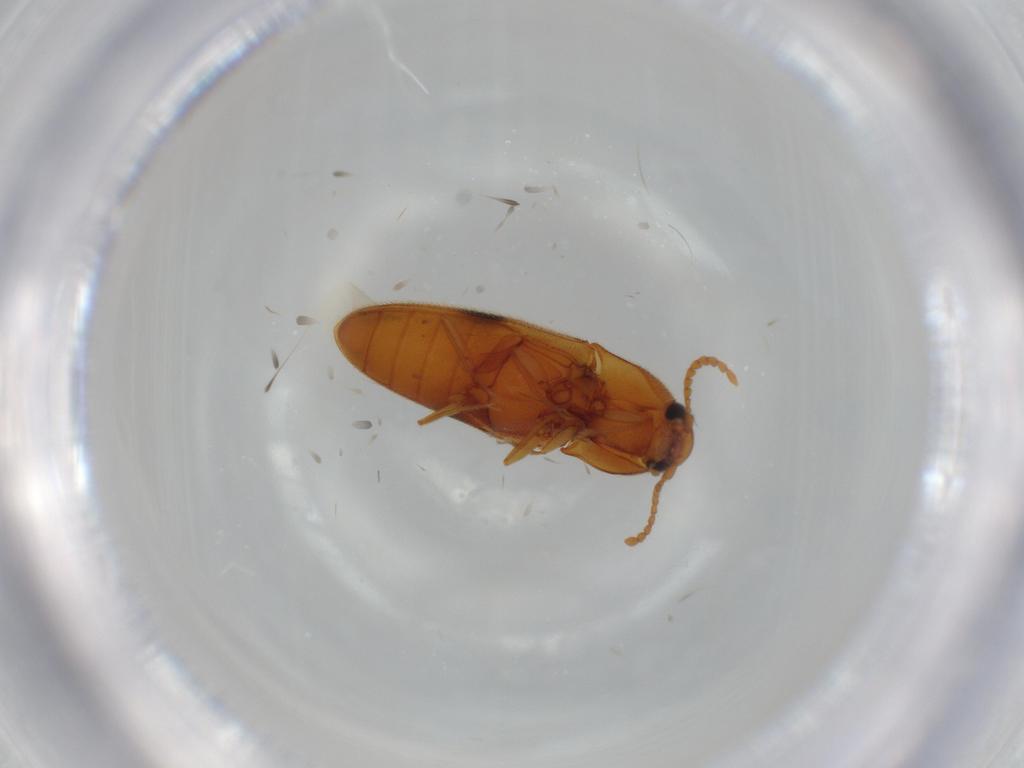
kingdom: Animalia
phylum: Arthropoda
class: Insecta
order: Coleoptera
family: Elateridae
